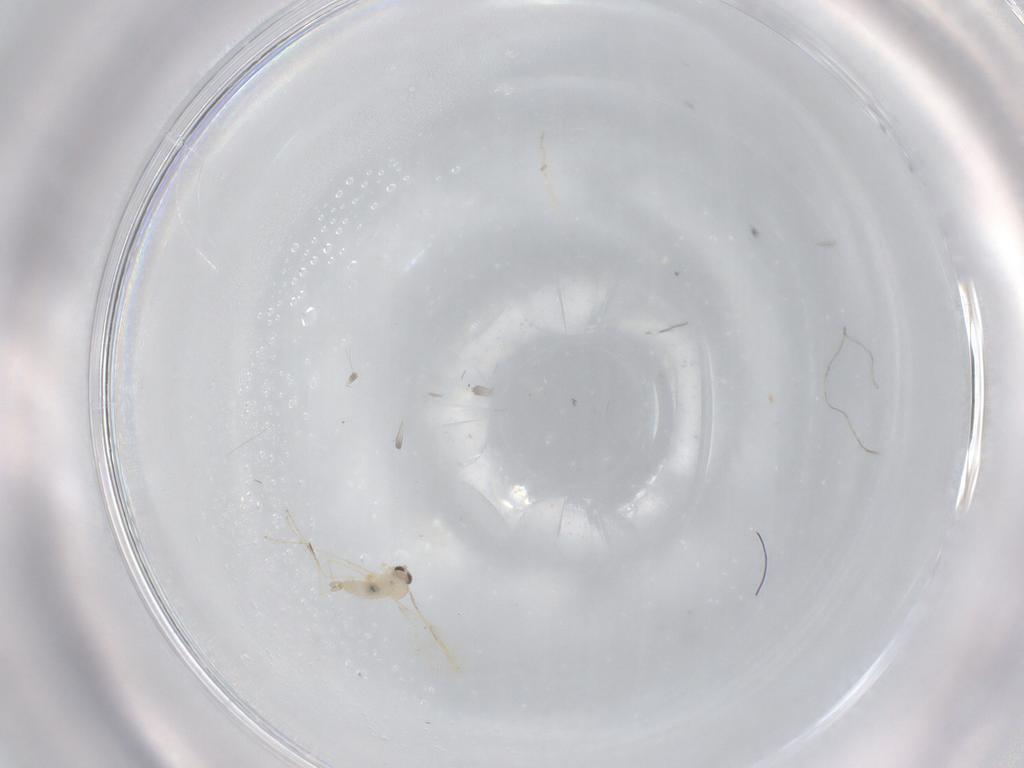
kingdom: Animalia
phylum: Arthropoda
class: Insecta
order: Diptera
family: Cecidomyiidae
